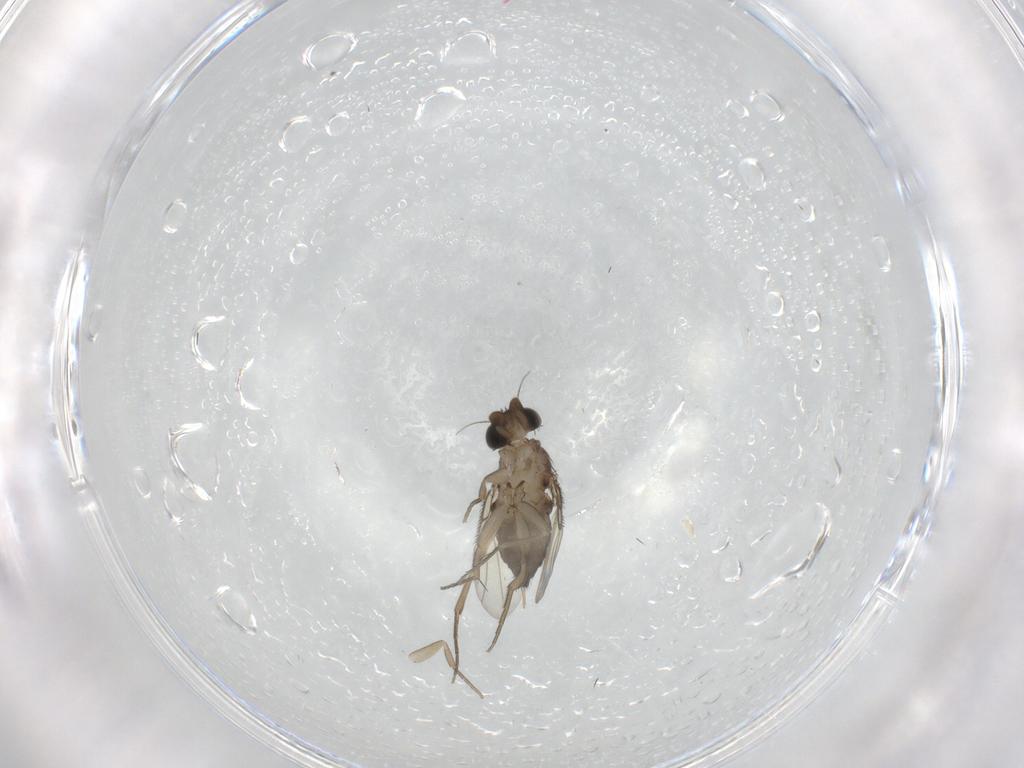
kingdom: Animalia
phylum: Arthropoda
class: Insecta
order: Diptera
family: Phoridae
